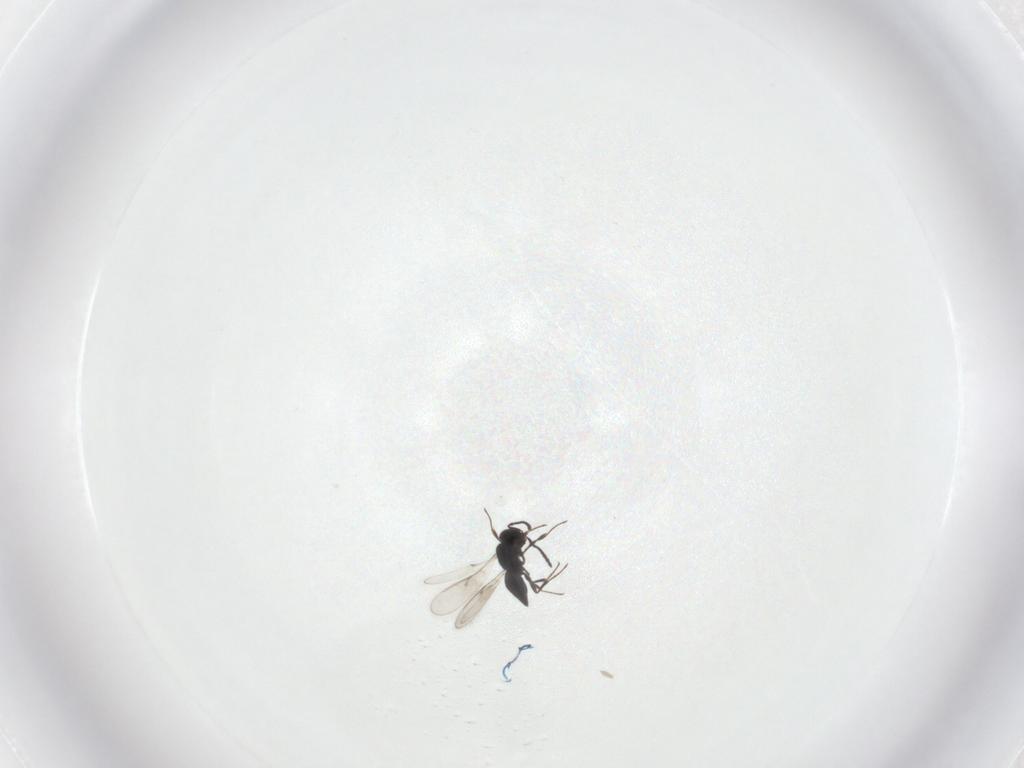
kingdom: Animalia
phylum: Arthropoda
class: Insecta
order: Hymenoptera
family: Scelionidae
